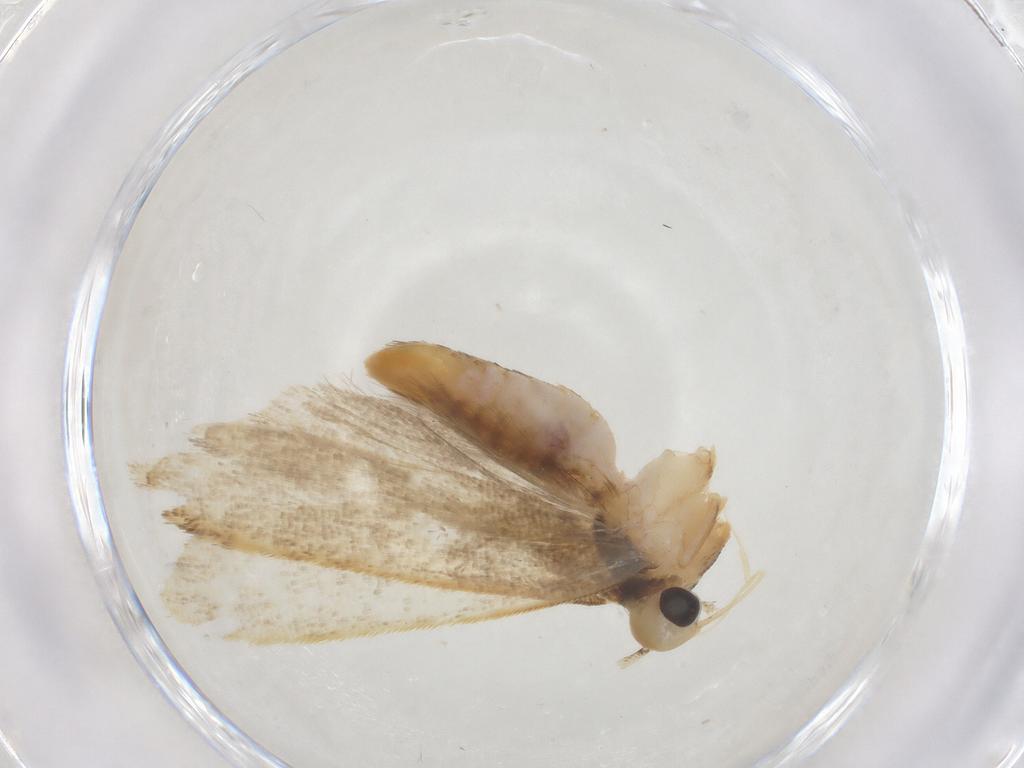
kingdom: Animalia
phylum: Arthropoda
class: Insecta
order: Lepidoptera
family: Gelechiidae
